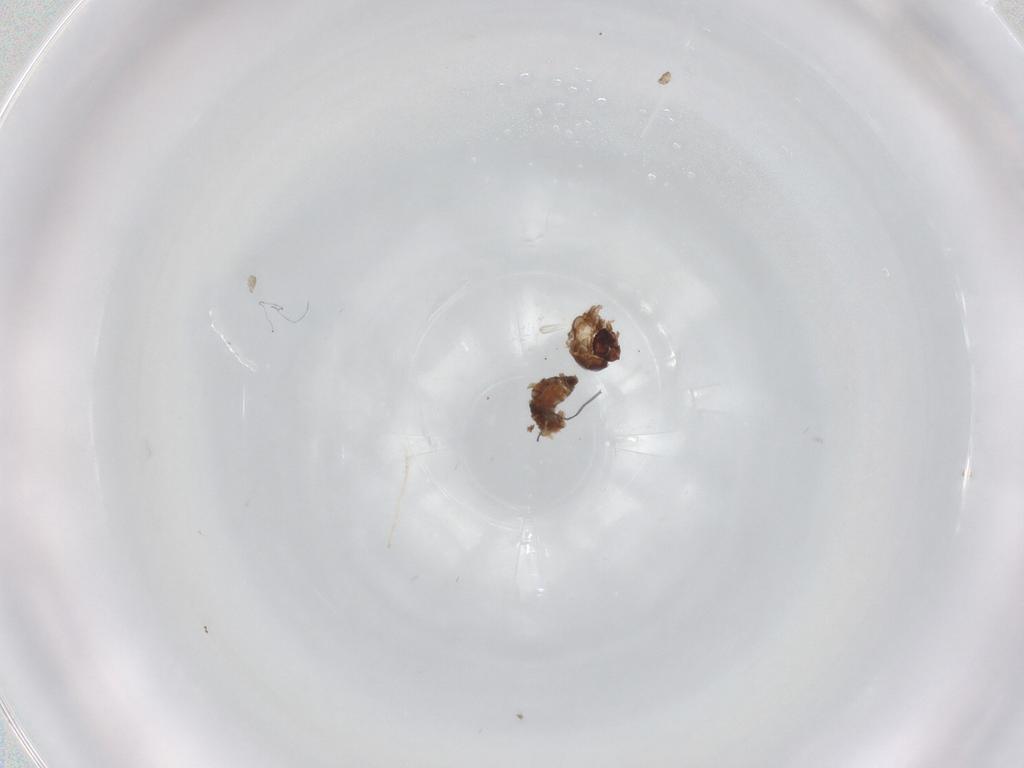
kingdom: Animalia
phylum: Arthropoda
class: Insecta
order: Diptera
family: Psychodidae
